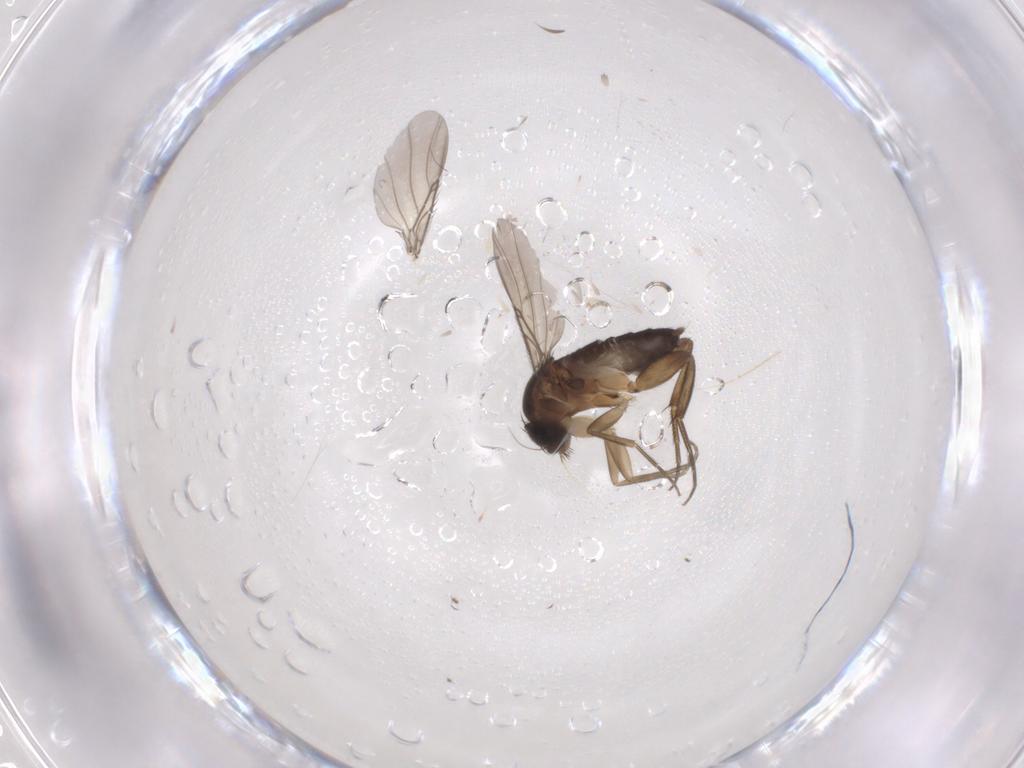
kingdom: Animalia
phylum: Arthropoda
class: Insecta
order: Diptera
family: Phoridae
